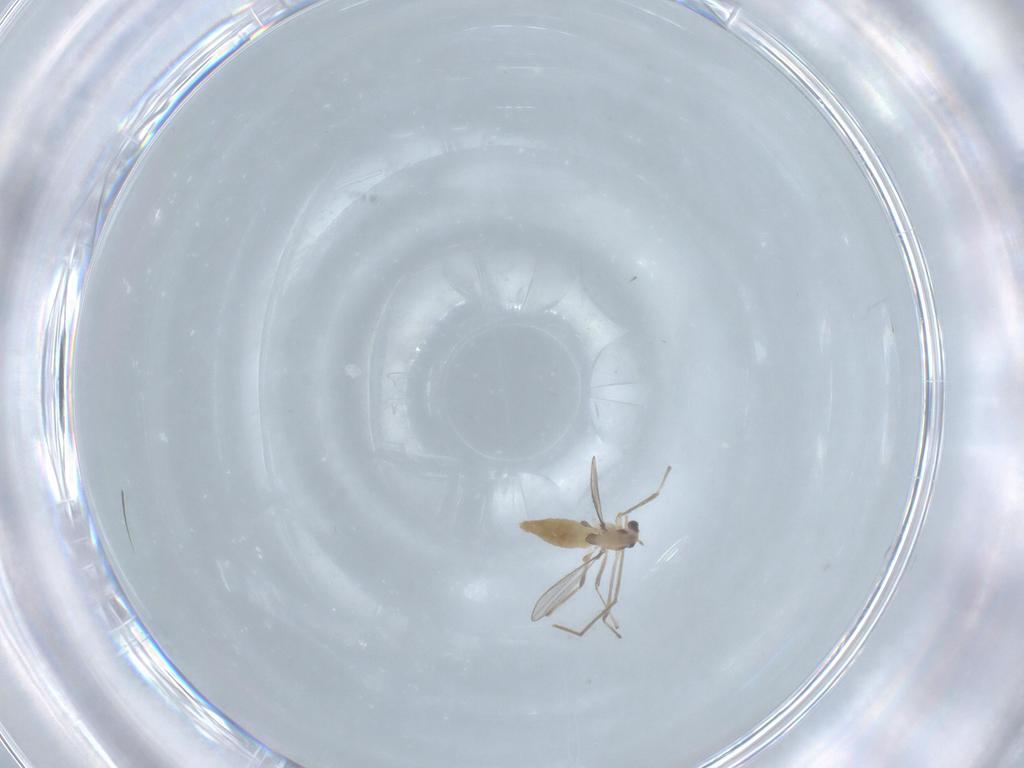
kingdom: Animalia
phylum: Arthropoda
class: Insecta
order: Diptera
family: Chironomidae
